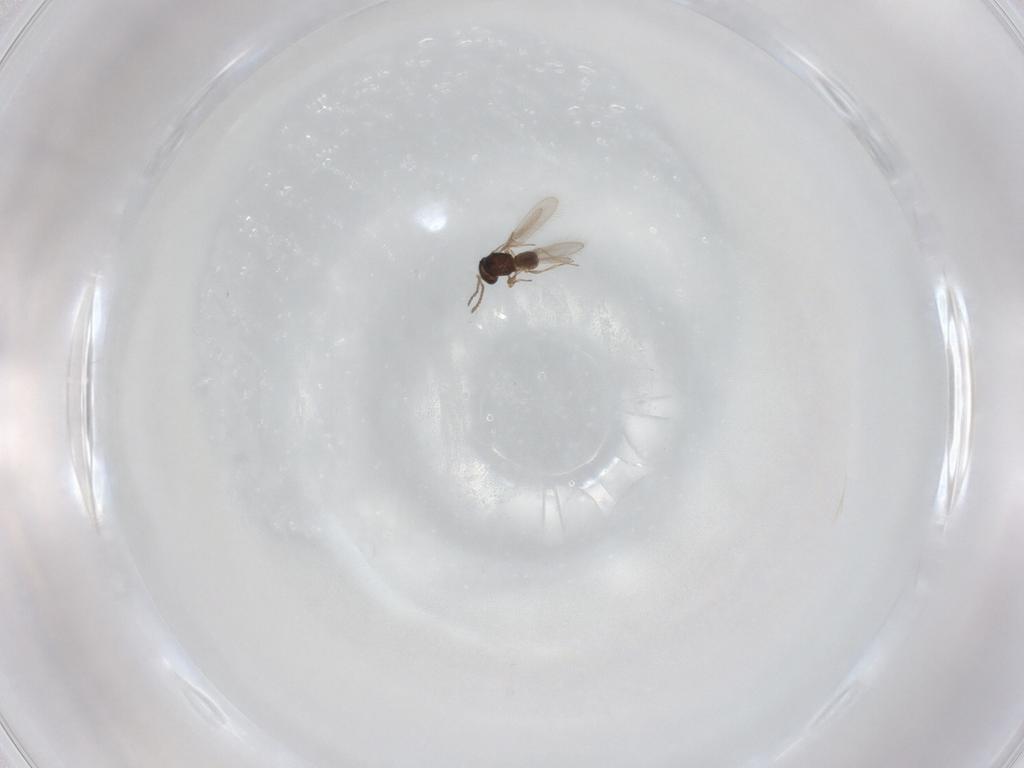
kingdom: Animalia
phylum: Arthropoda
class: Insecta
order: Hymenoptera
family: Scelionidae
